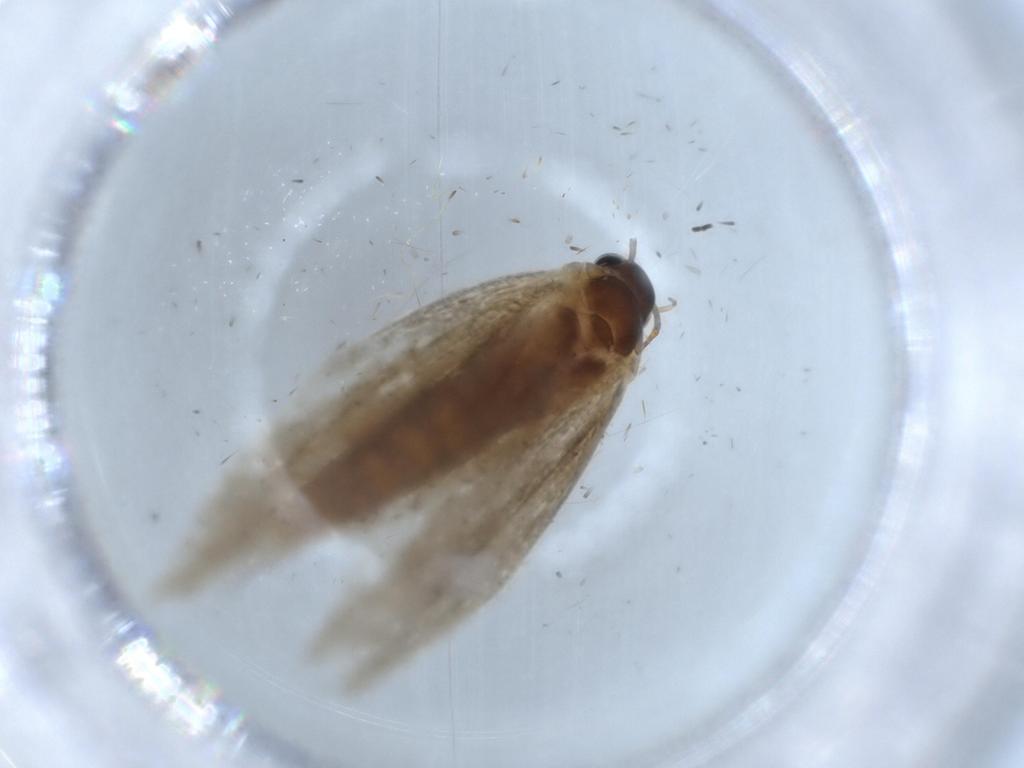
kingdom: Animalia
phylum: Arthropoda
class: Insecta
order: Lepidoptera
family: Oecophoridae
